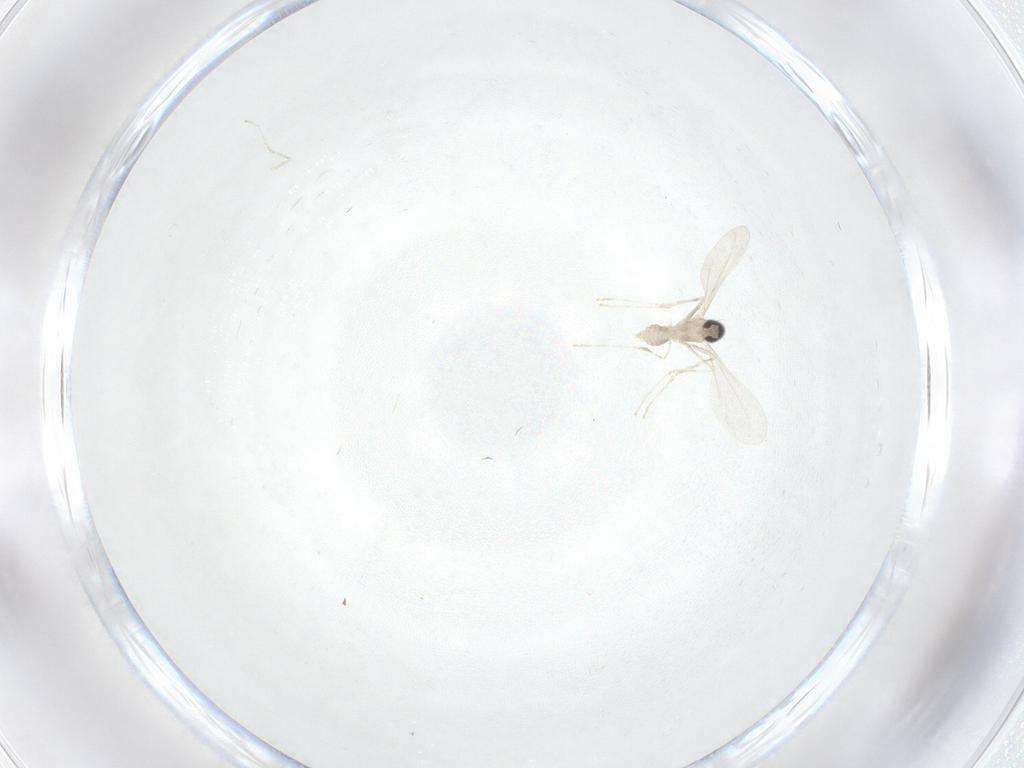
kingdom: Animalia
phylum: Arthropoda
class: Insecta
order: Diptera
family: Cecidomyiidae
